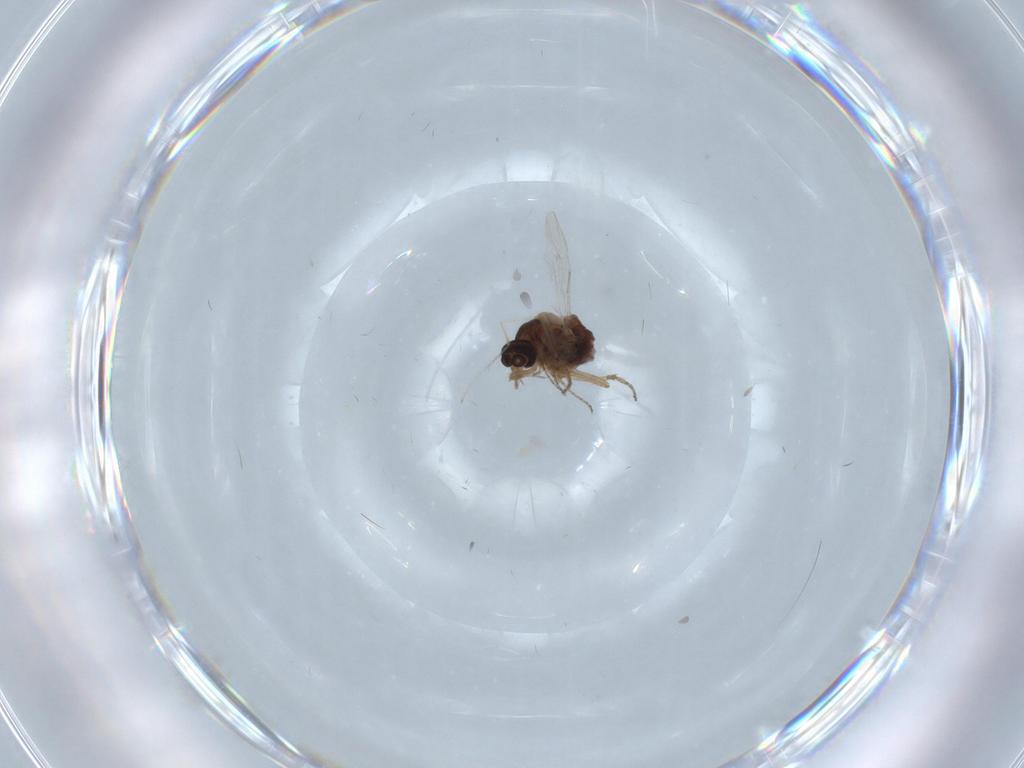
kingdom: Animalia
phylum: Arthropoda
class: Insecta
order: Diptera
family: Ceratopogonidae
